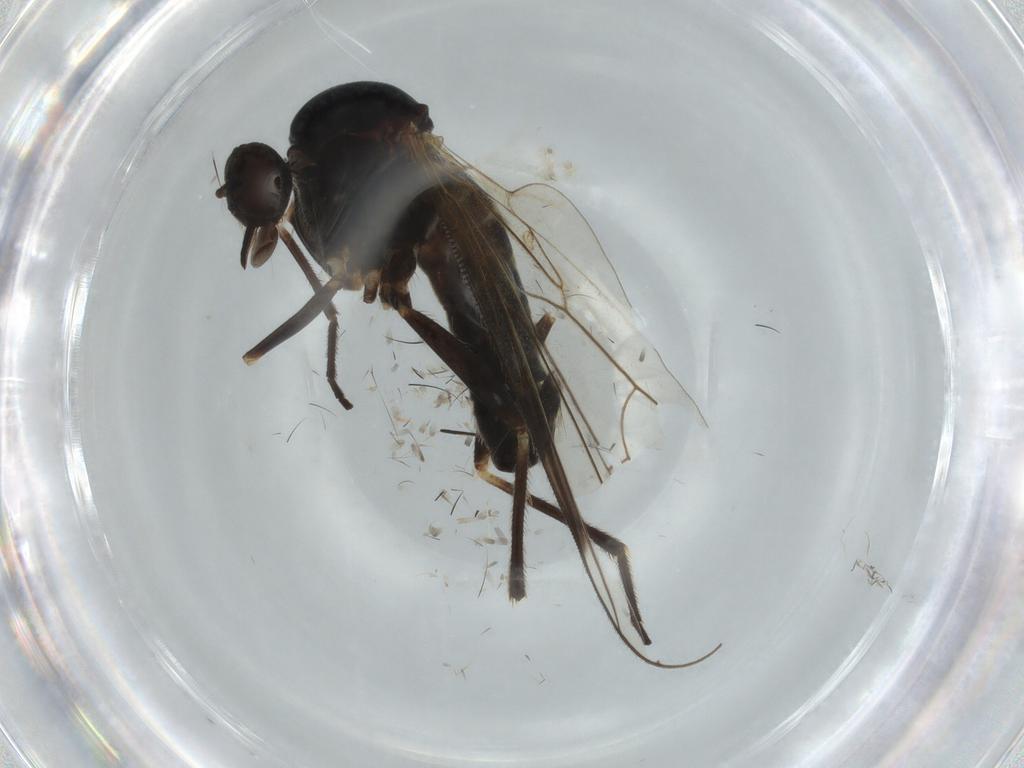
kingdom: Animalia
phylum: Arthropoda
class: Insecta
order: Diptera
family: Empididae
